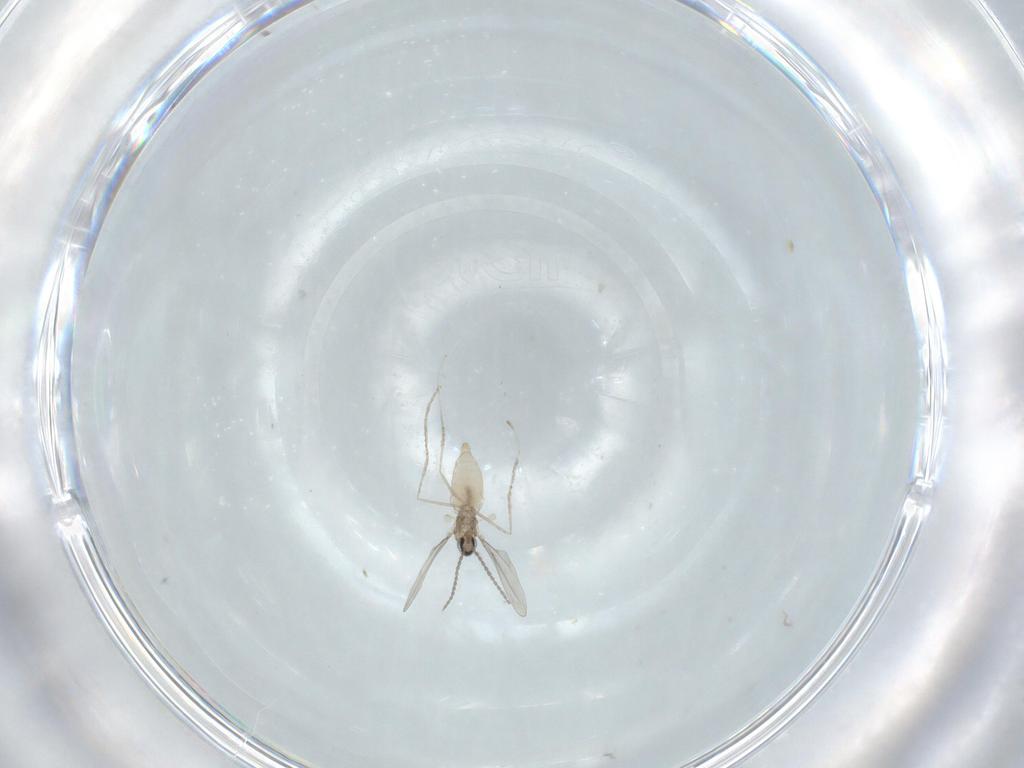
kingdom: Animalia
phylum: Arthropoda
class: Insecta
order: Diptera
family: Cecidomyiidae
